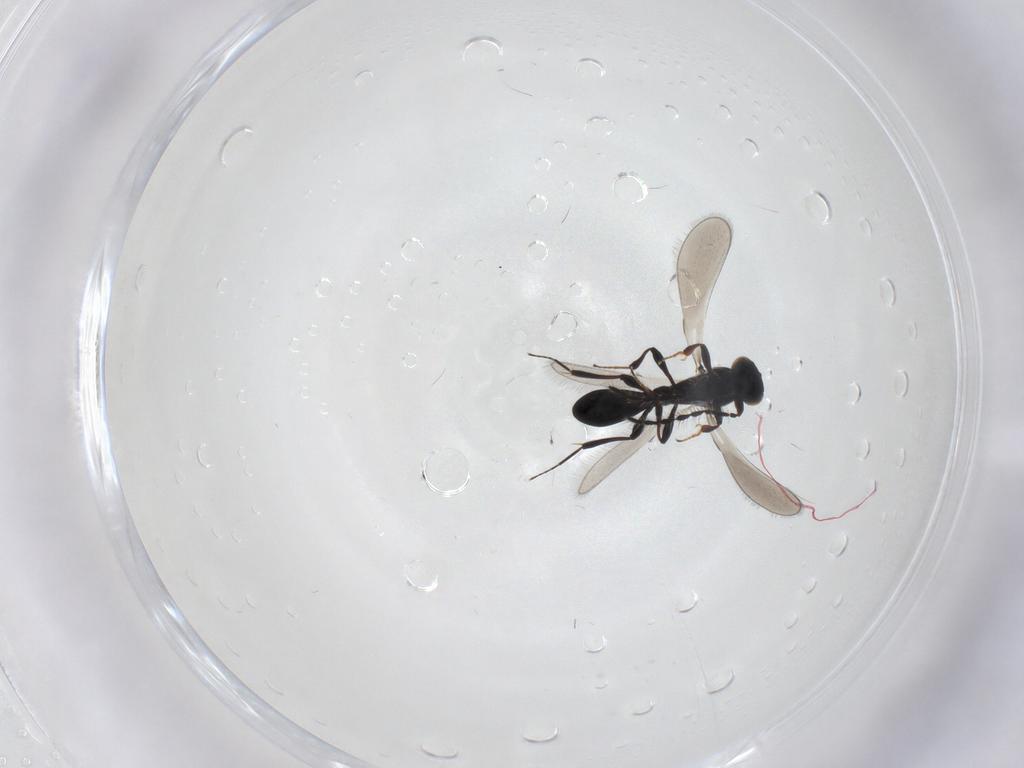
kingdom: Animalia
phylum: Arthropoda
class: Insecta
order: Hymenoptera
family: Platygastridae
